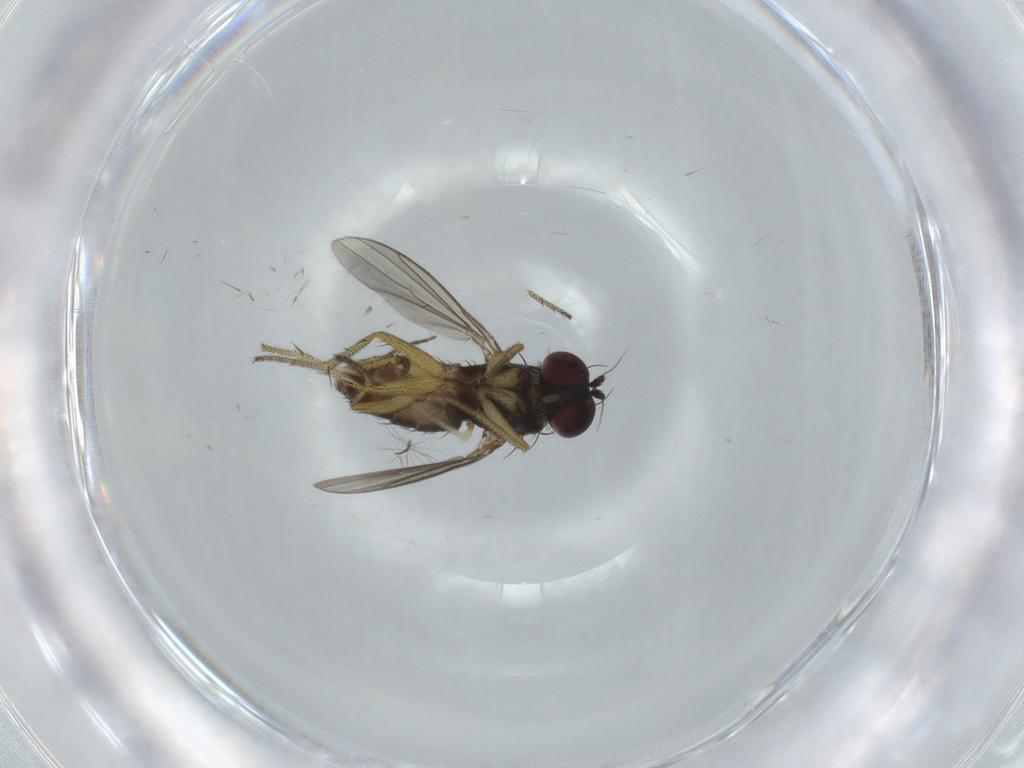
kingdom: Animalia
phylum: Arthropoda
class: Insecta
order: Diptera
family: Dolichopodidae
